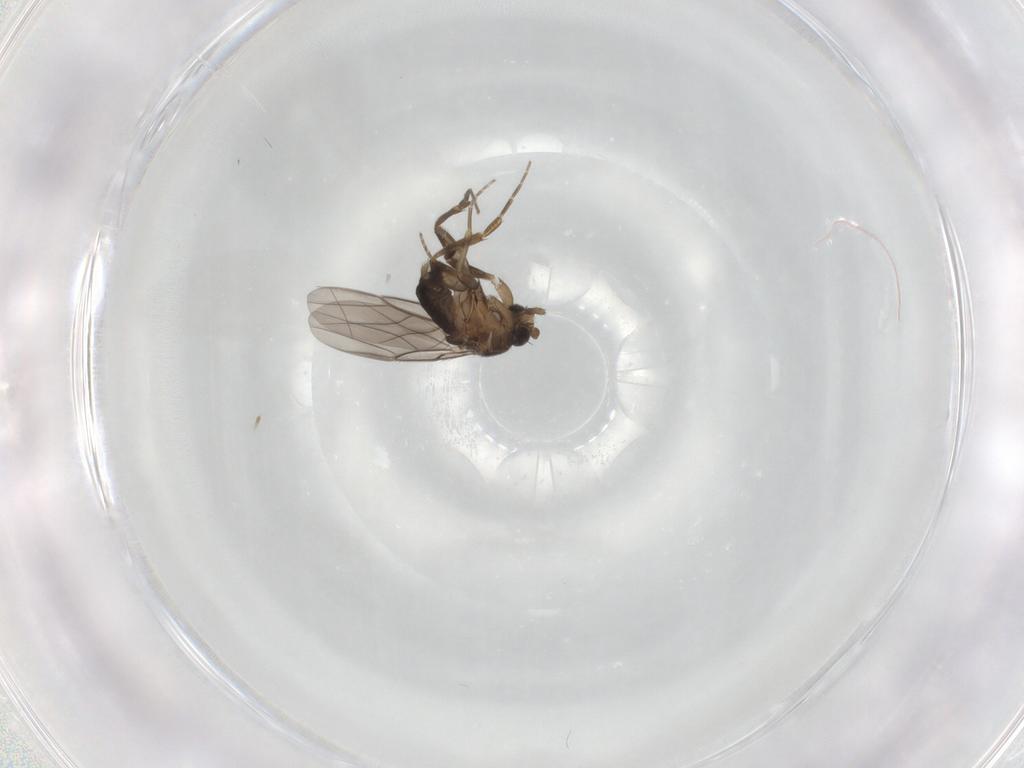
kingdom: Animalia
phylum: Arthropoda
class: Insecta
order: Diptera
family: Phoridae
